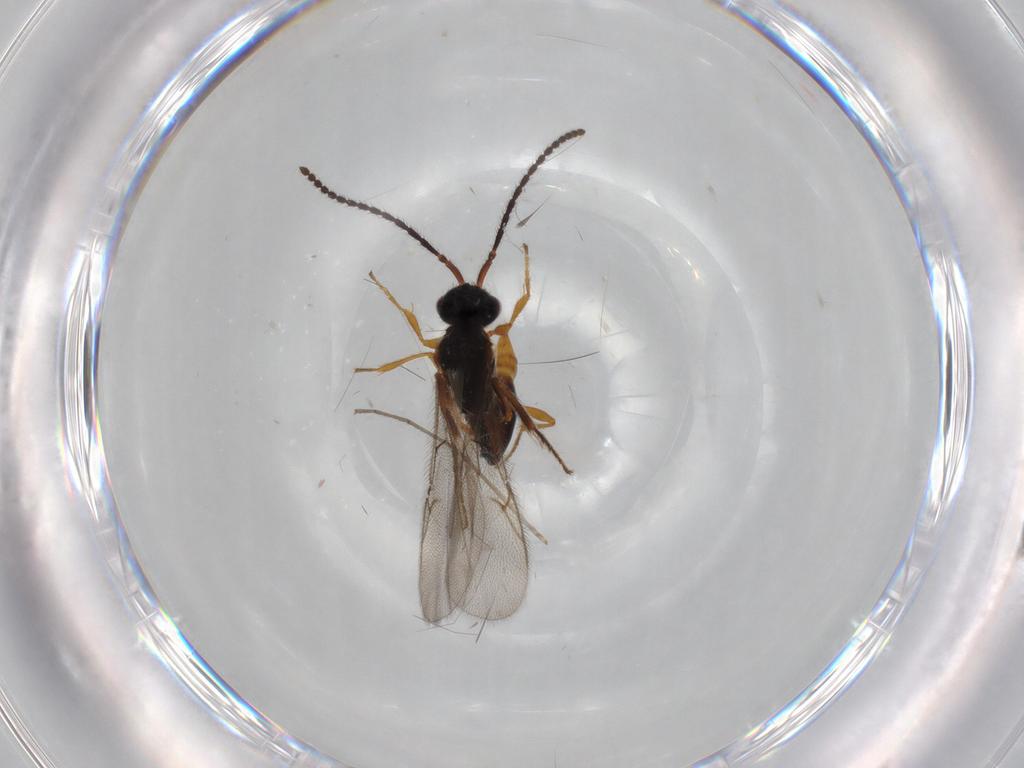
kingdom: Animalia
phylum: Arthropoda
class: Insecta
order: Hymenoptera
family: Diapriidae
